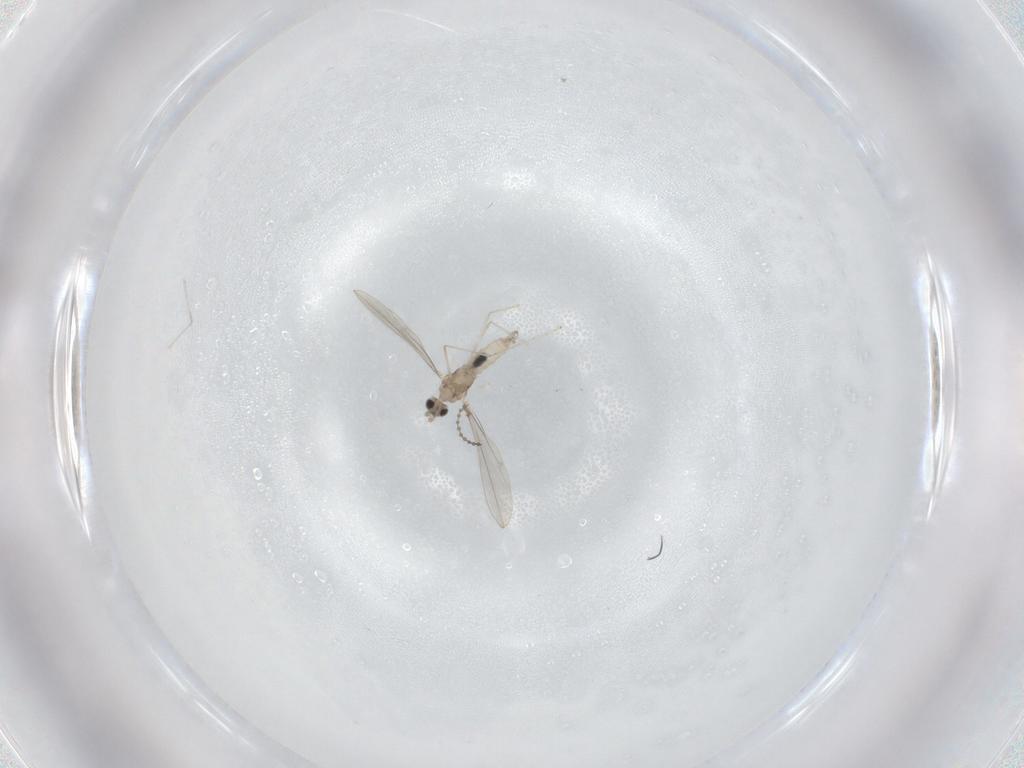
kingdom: Animalia
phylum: Arthropoda
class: Insecta
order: Diptera
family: Cecidomyiidae
